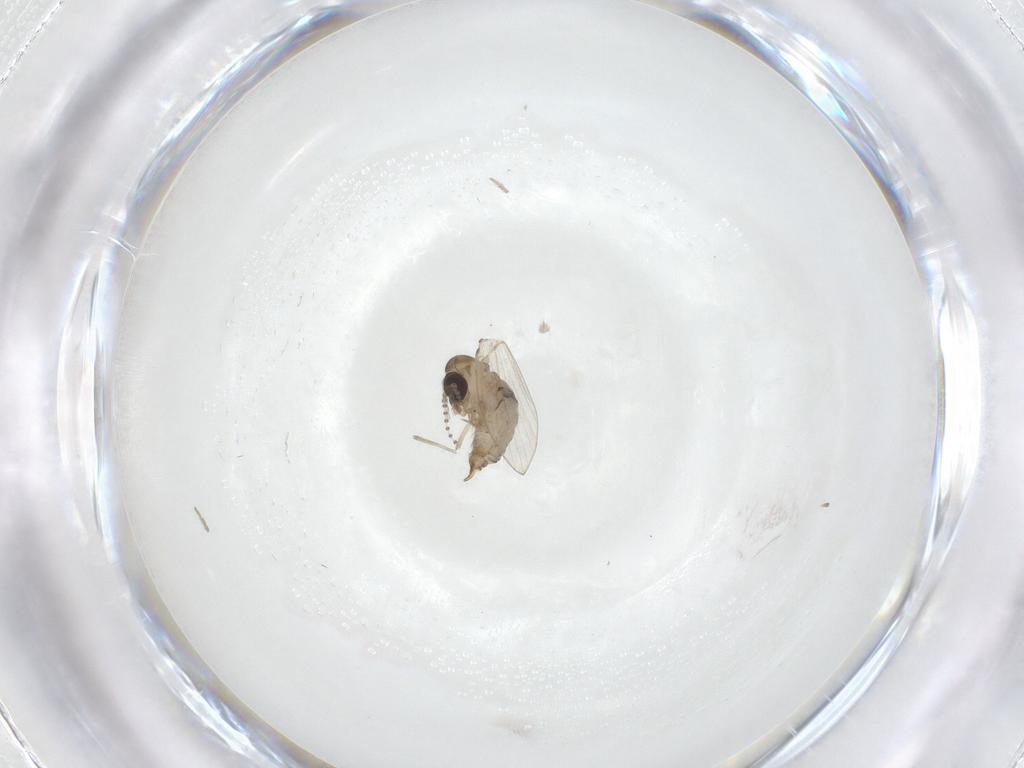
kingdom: Animalia
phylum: Arthropoda
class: Insecta
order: Diptera
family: Psychodidae
